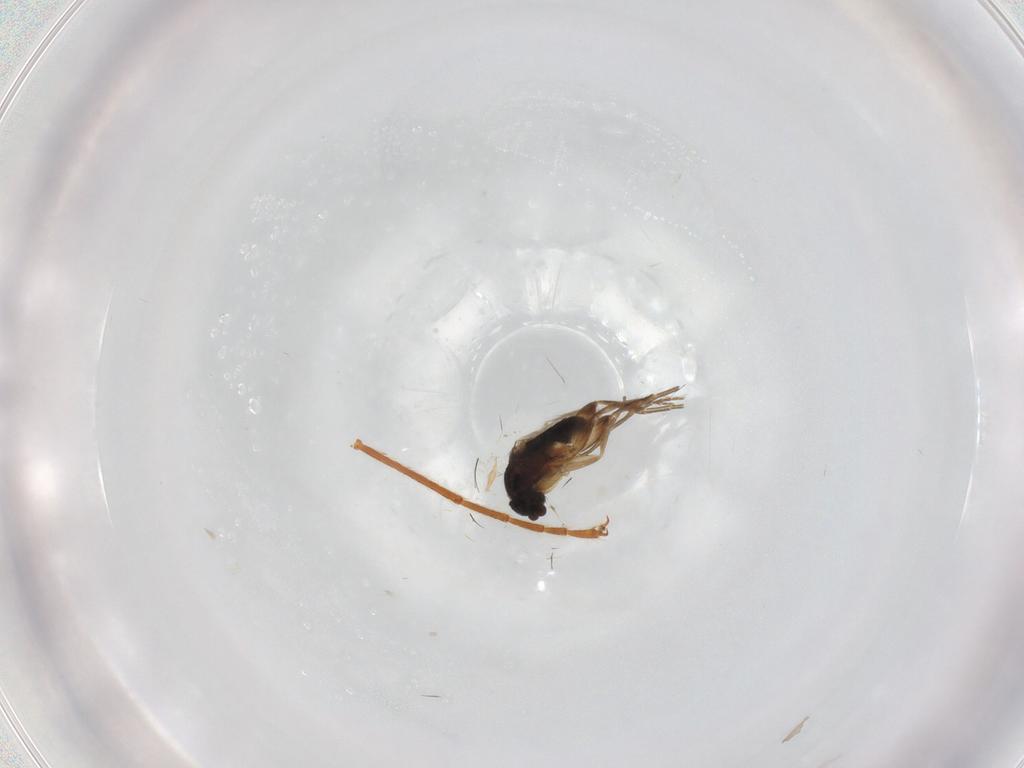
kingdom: Animalia
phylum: Arthropoda
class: Insecta
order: Diptera
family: Phoridae
